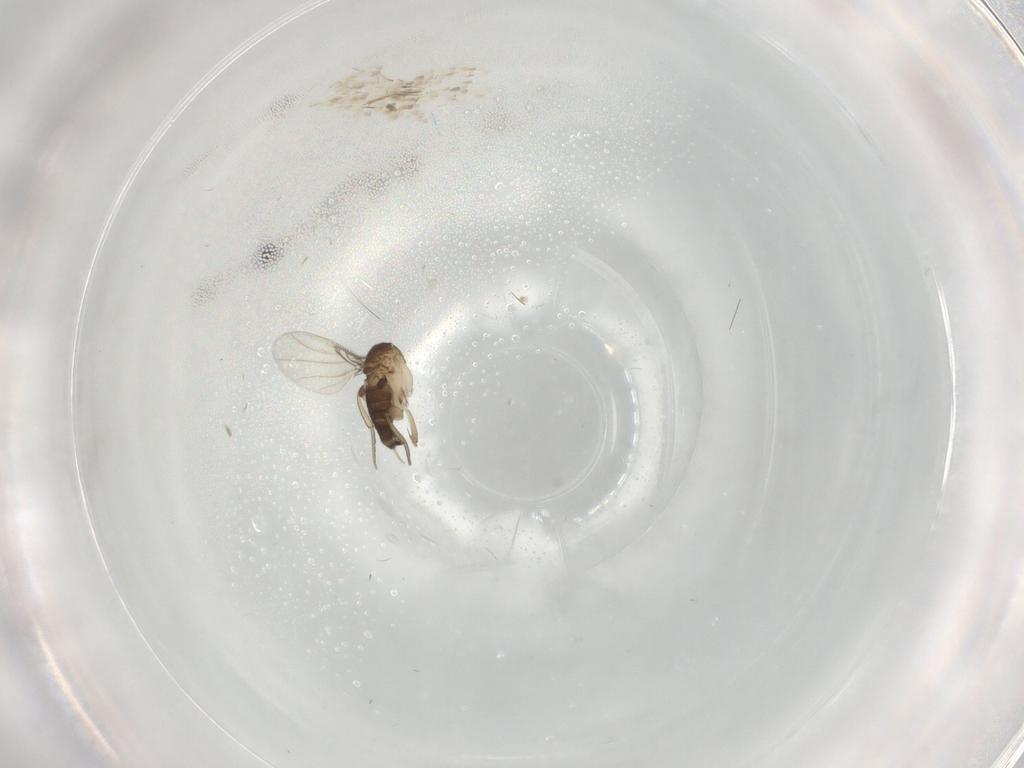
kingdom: Animalia
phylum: Arthropoda
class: Insecta
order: Diptera
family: Phoridae
